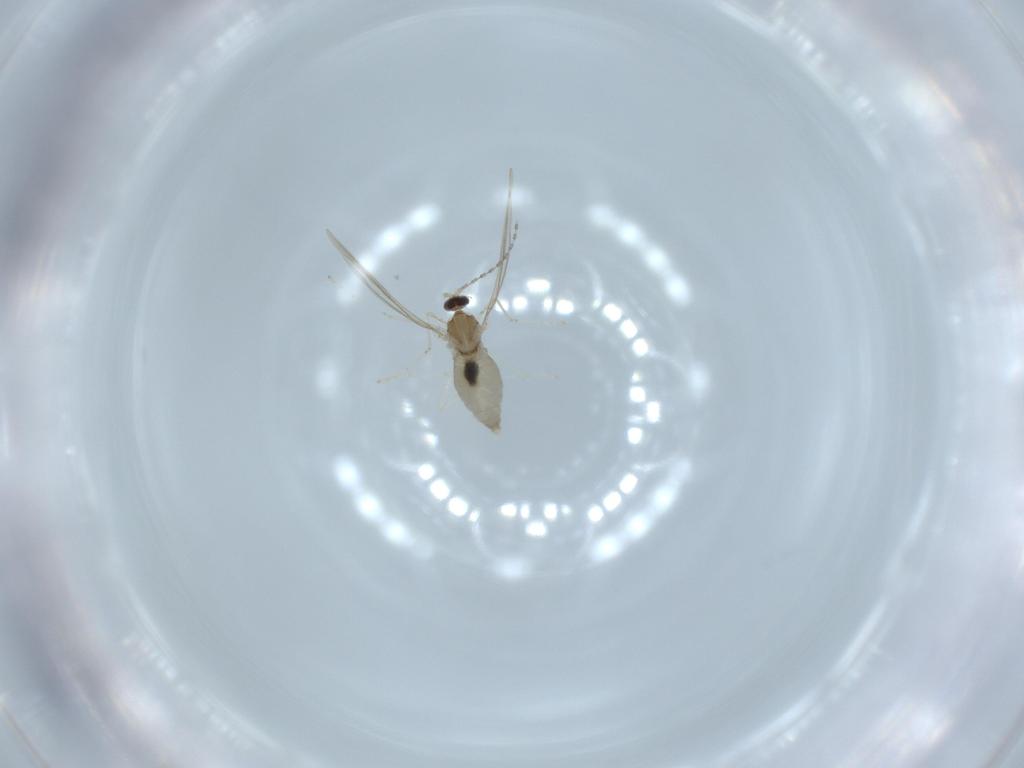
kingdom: Animalia
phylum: Arthropoda
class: Insecta
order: Diptera
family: Cecidomyiidae
